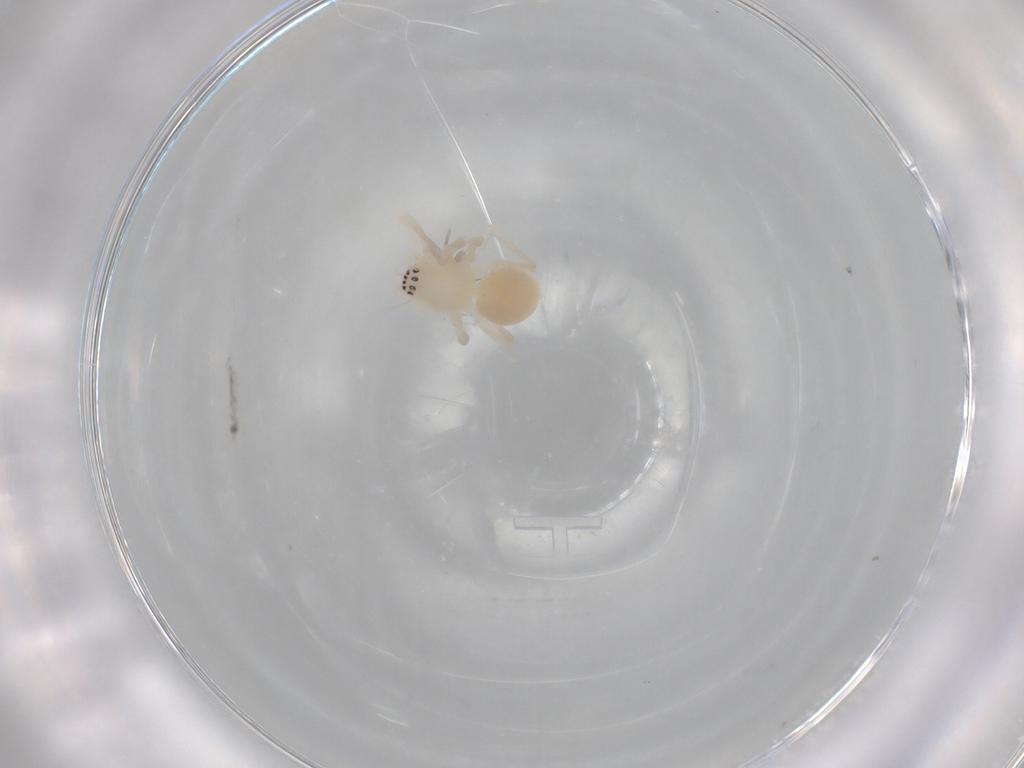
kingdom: Animalia
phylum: Arthropoda
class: Arachnida
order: Araneae
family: Anyphaenidae
